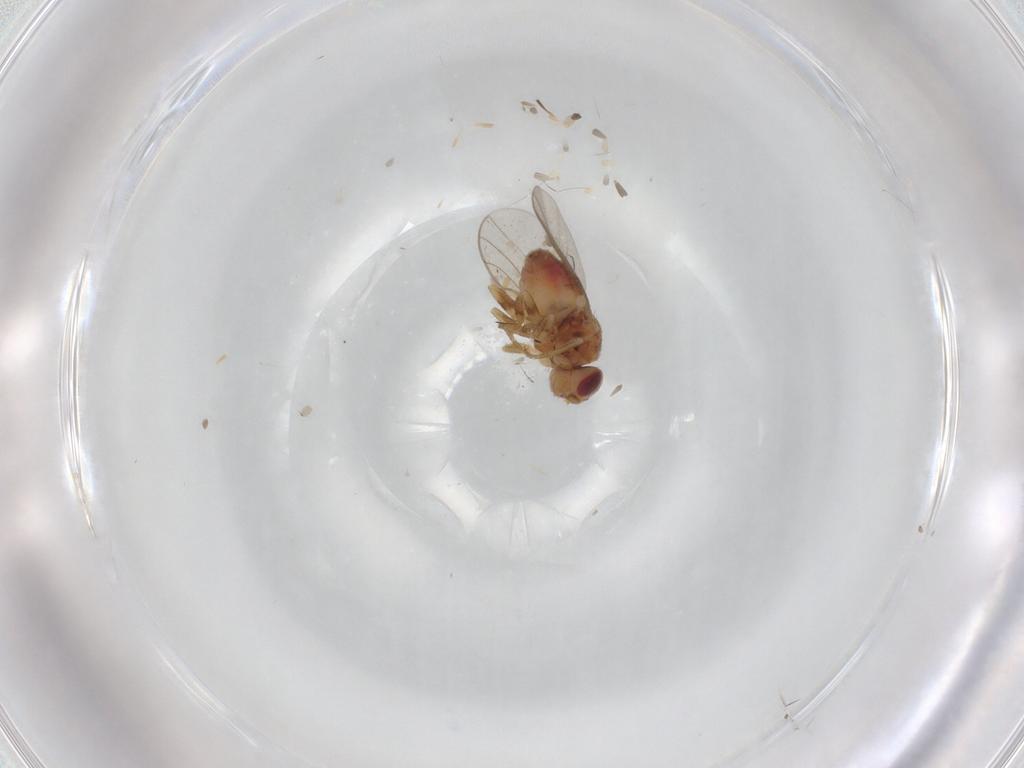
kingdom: Animalia
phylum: Arthropoda
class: Insecta
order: Diptera
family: Chloropidae
